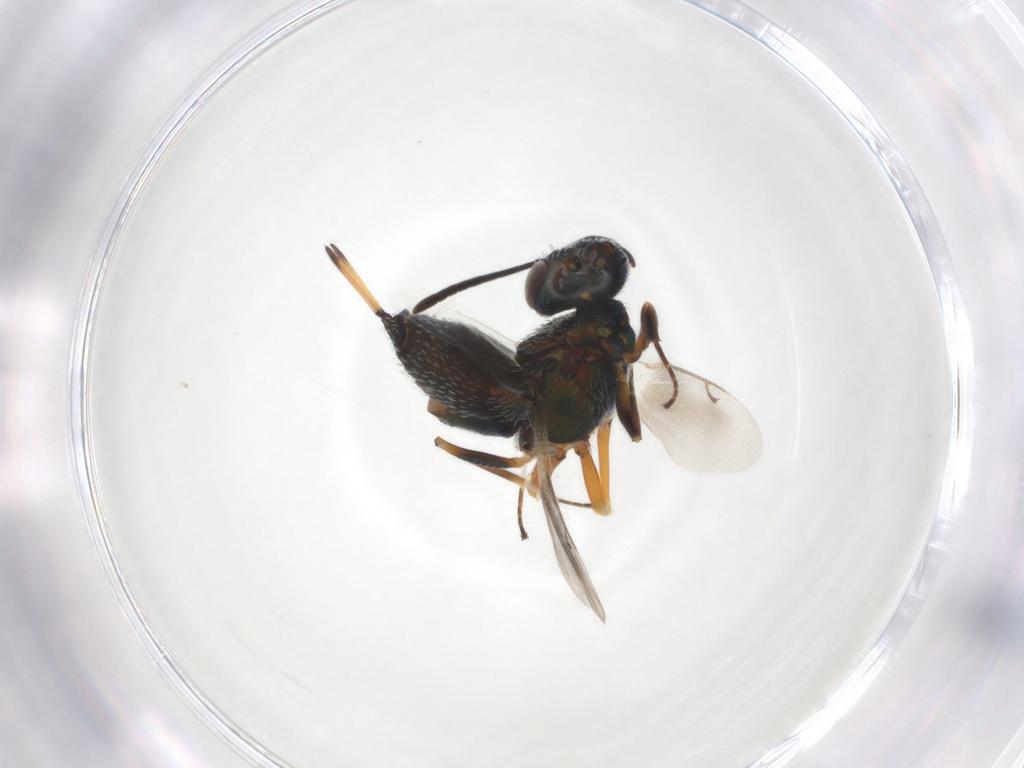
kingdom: Animalia
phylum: Arthropoda
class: Insecta
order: Hymenoptera
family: Eupelmidae
